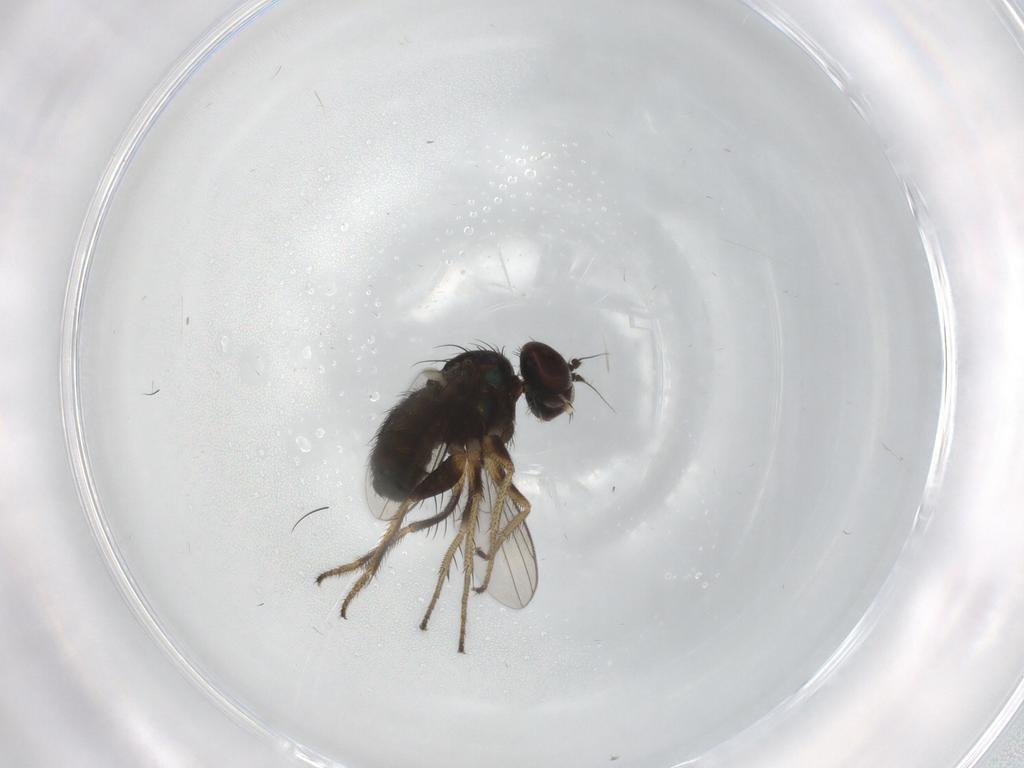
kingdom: Animalia
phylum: Arthropoda
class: Insecta
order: Diptera
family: Dolichopodidae
